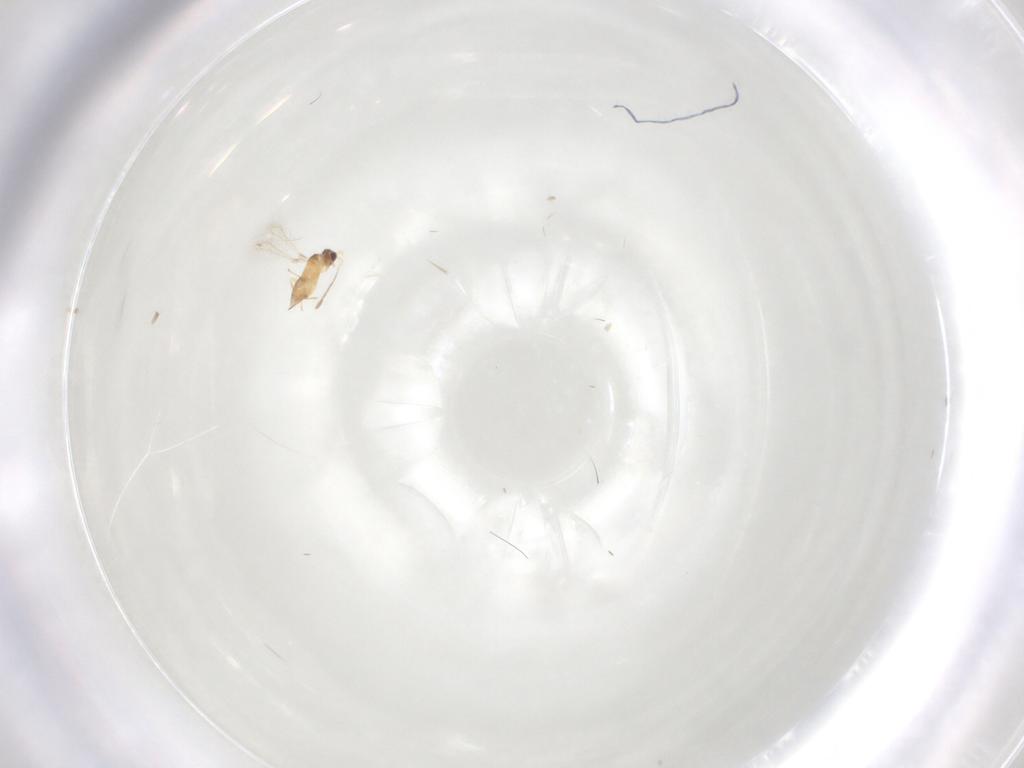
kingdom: Animalia
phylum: Arthropoda
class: Insecta
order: Hymenoptera
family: Mymaridae
